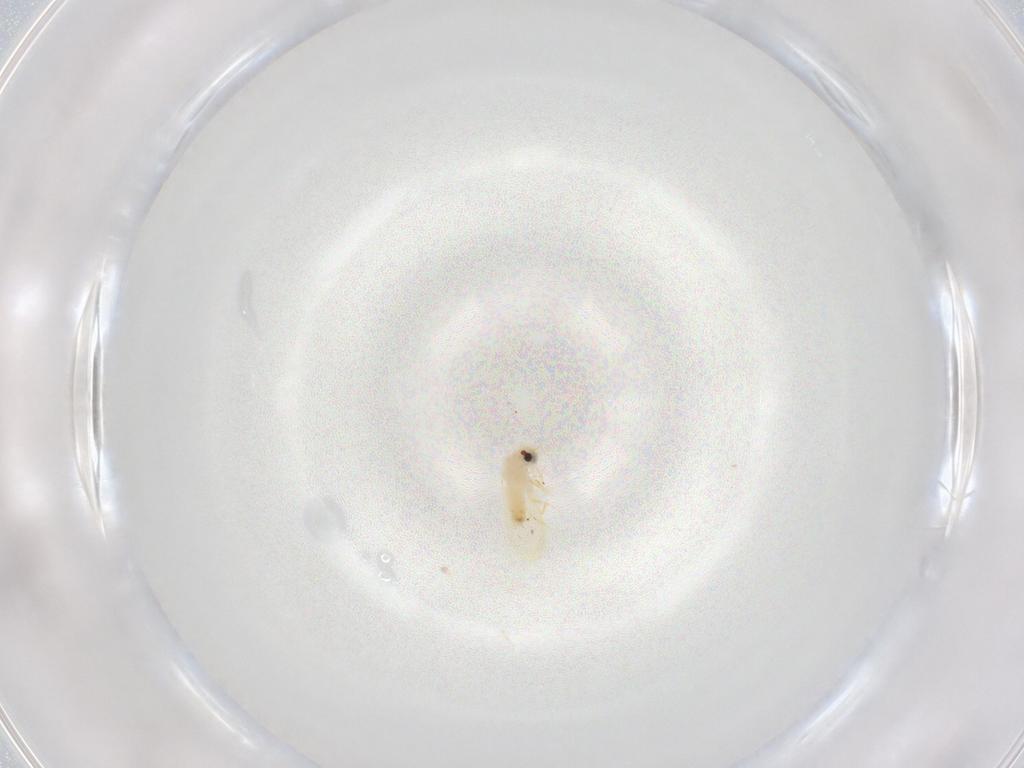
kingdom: Animalia
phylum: Arthropoda
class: Insecta
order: Hemiptera
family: Aleyrodidae
